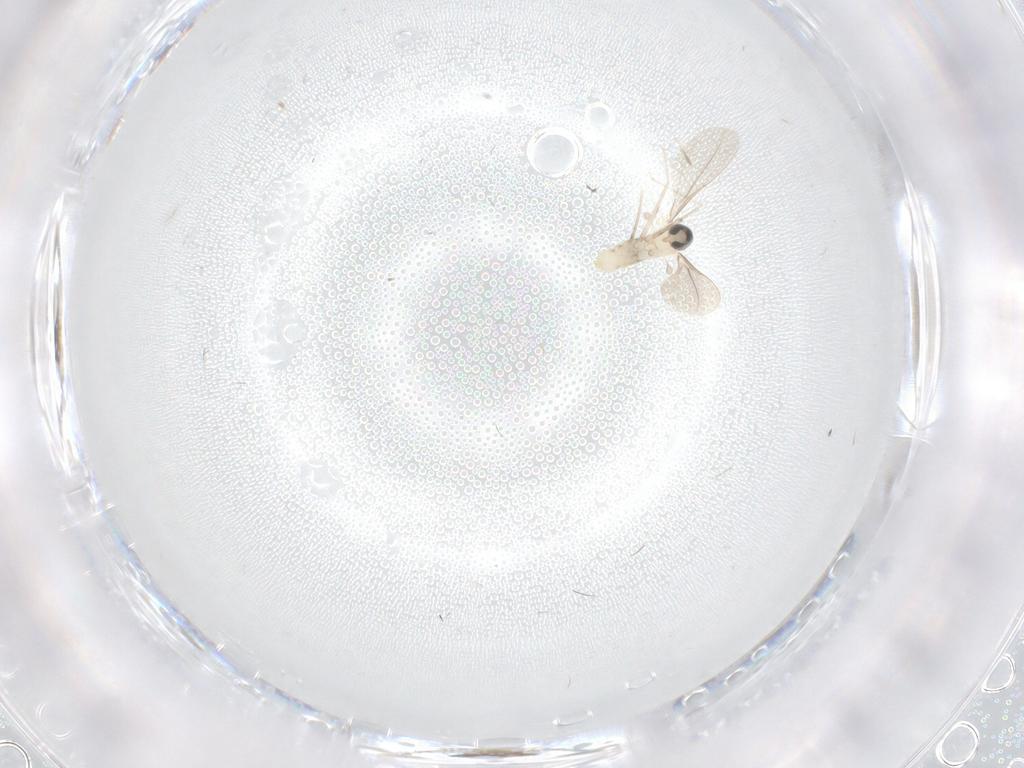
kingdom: Animalia
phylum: Arthropoda
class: Insecta
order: Diptera
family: Cecidomyiidae
